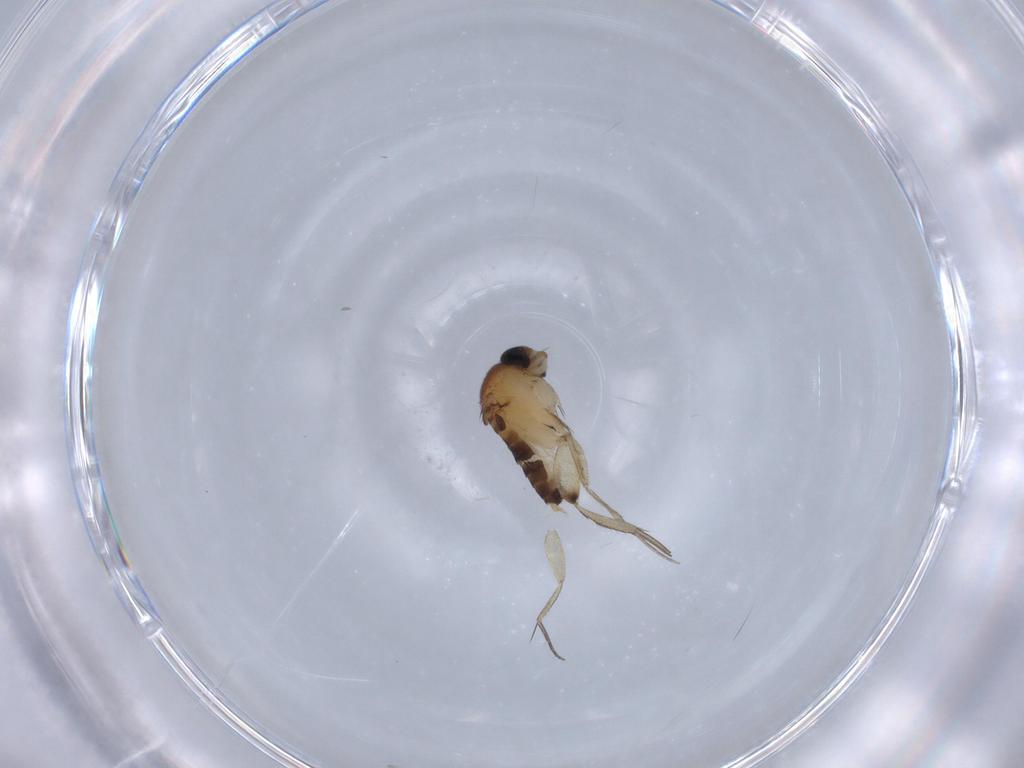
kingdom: Animalia
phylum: Arthropoda
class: Insecta
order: Diptera
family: Phoridae
